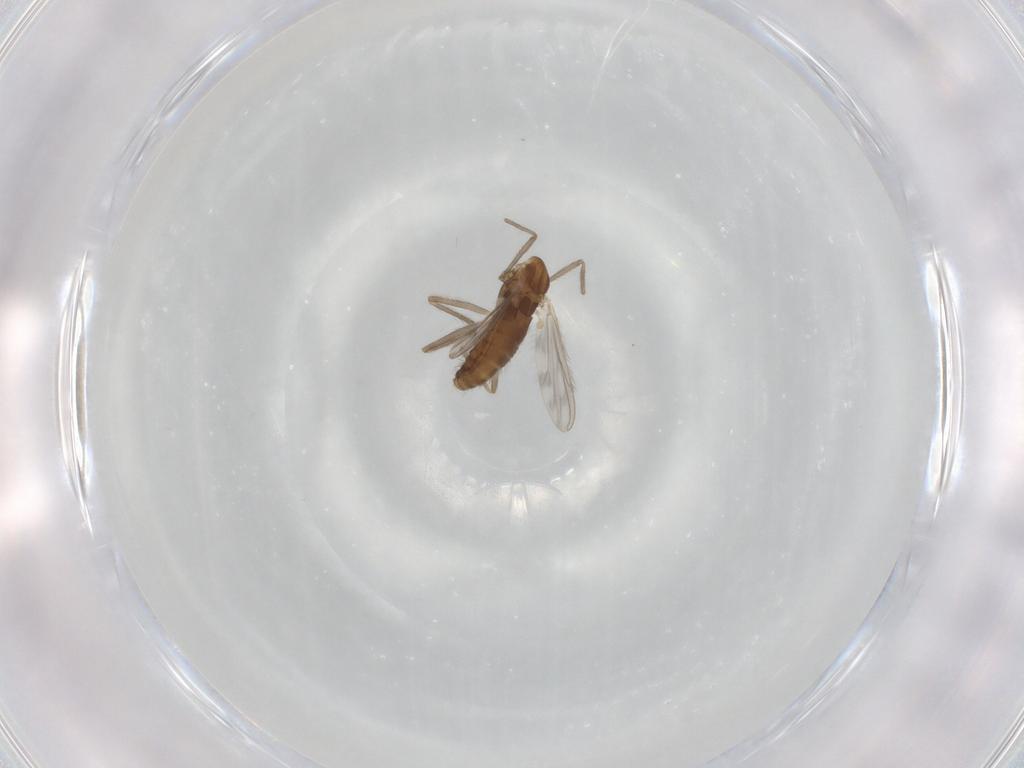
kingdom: Animalia
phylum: Arthropoda
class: Insecta
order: Diptera
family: Chironomidae
